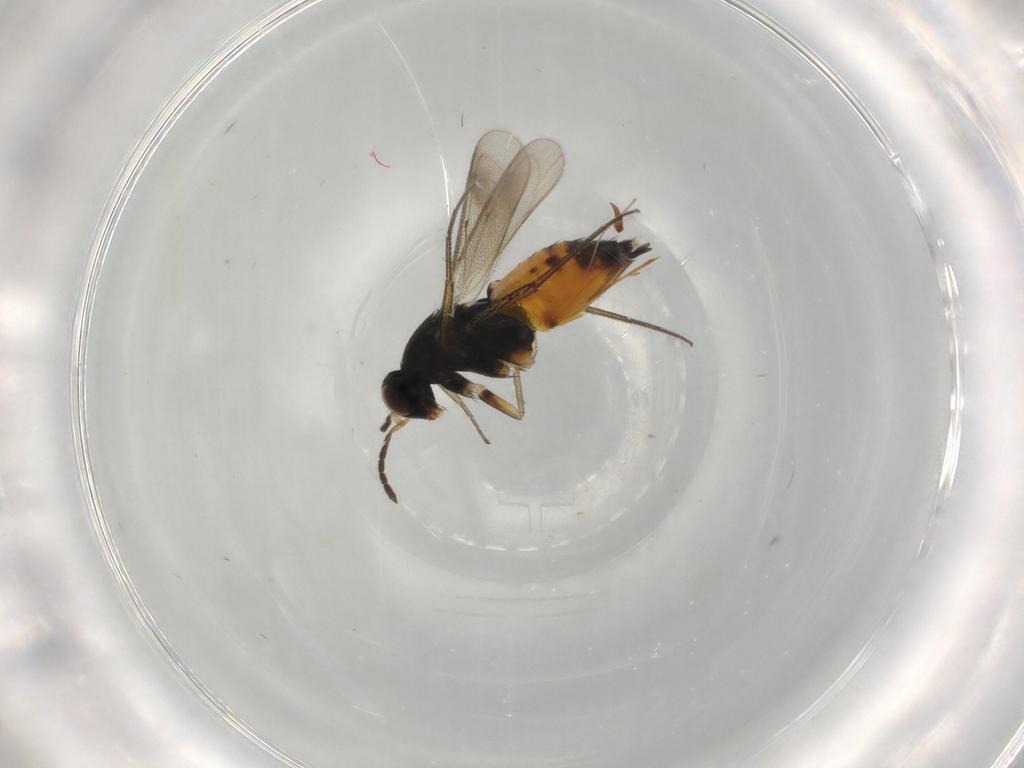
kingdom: Animalia
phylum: Arthropoda
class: Insecta
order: Hymenoptera
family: Eulophidae
